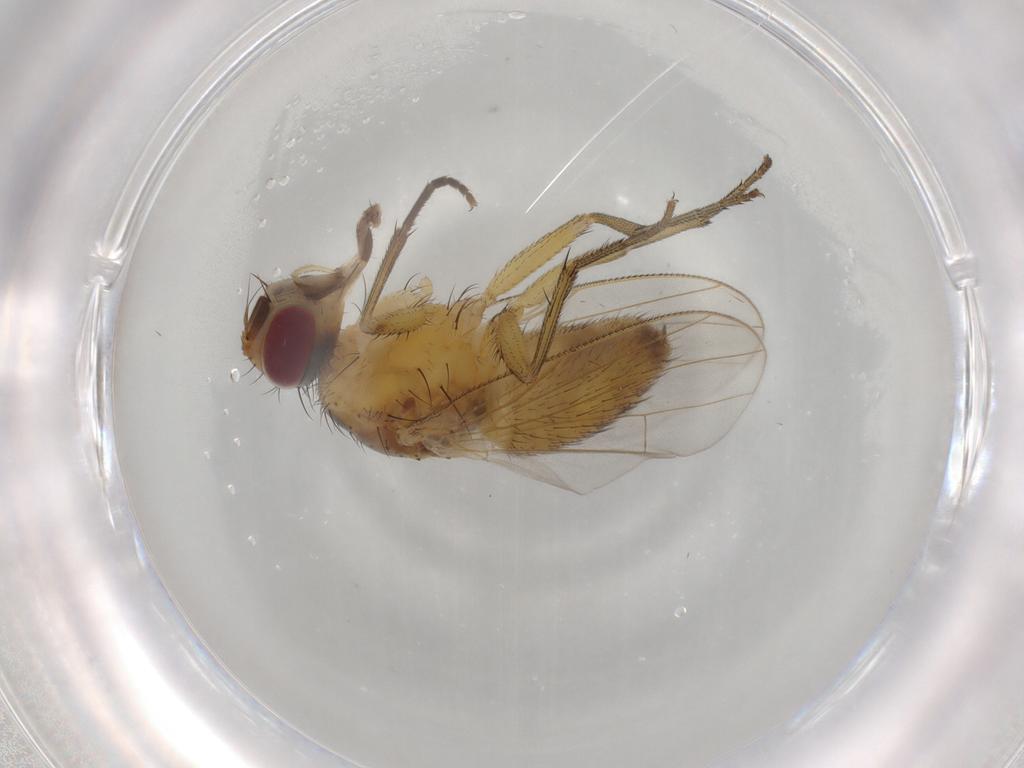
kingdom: Animalia
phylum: Arthropoda
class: Insecta
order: Diptera
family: Muscidae
